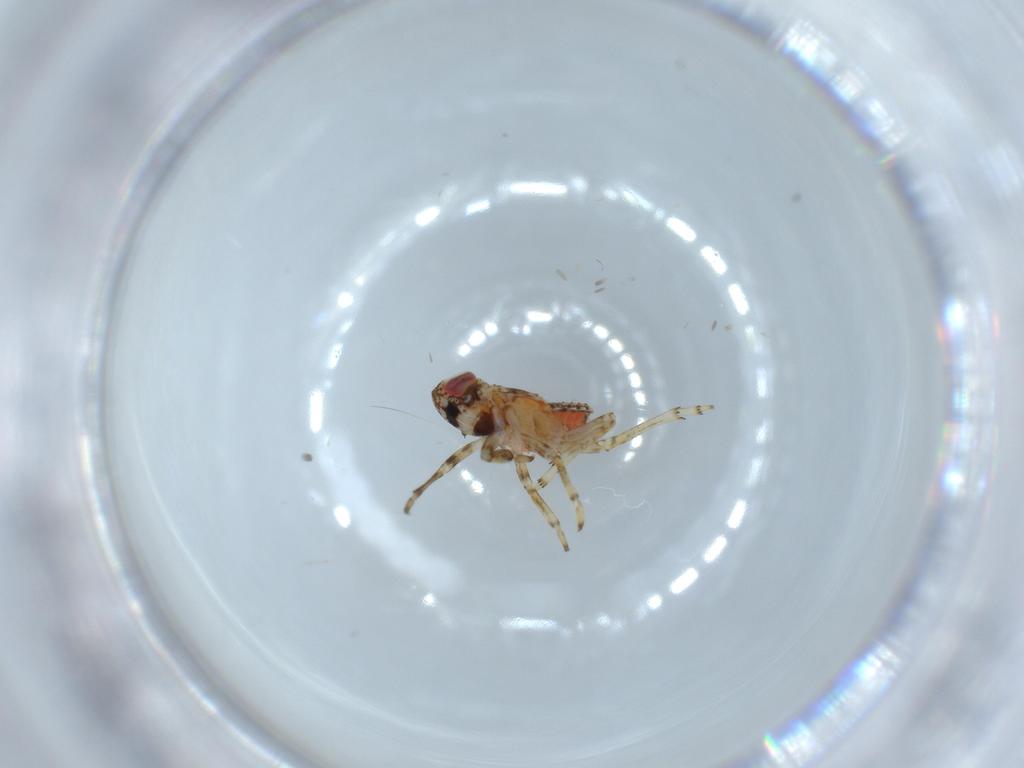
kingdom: Animalia
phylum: Arthropoda
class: Insecta
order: Hemiptera
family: Issidae
